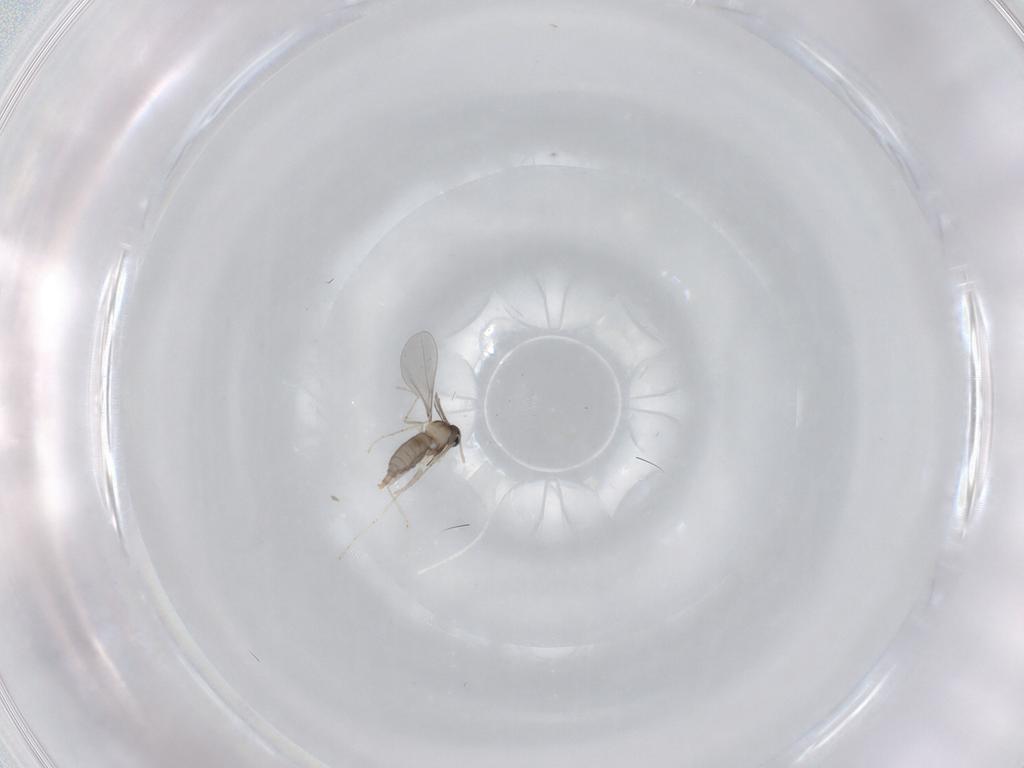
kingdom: Animalia
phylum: Arthropoda
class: Insecta
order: Diptera
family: Cecidomyiidae
